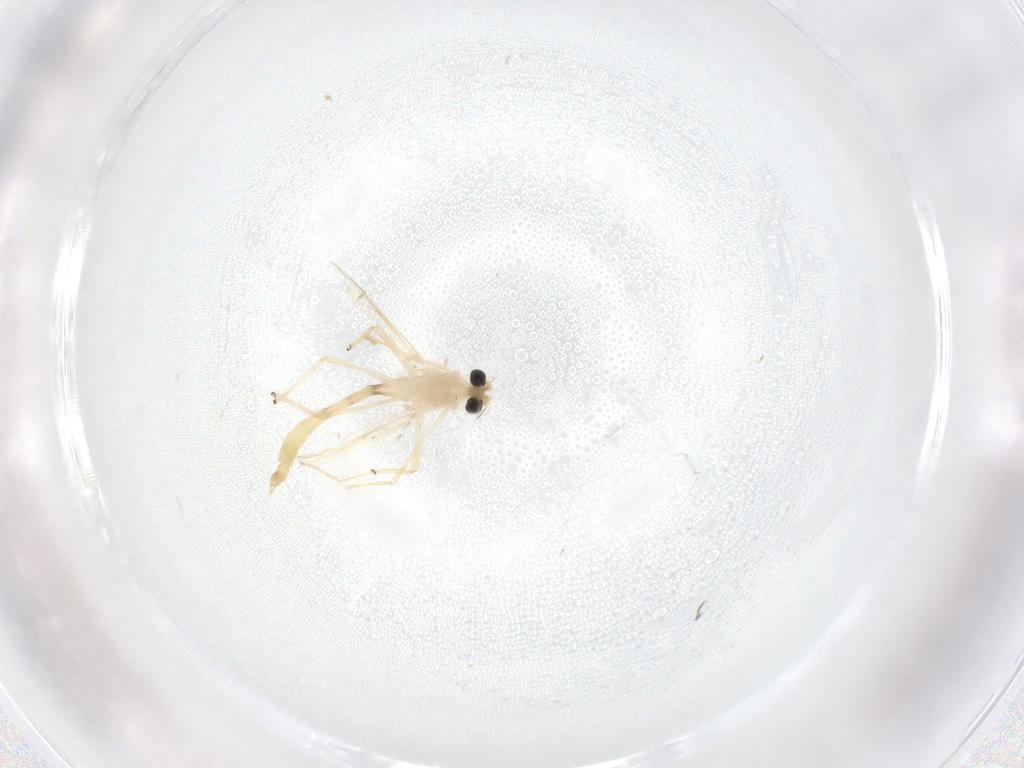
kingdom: Animalia
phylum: Arthropoda
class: Insecta
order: Diptera
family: Chironomidae
